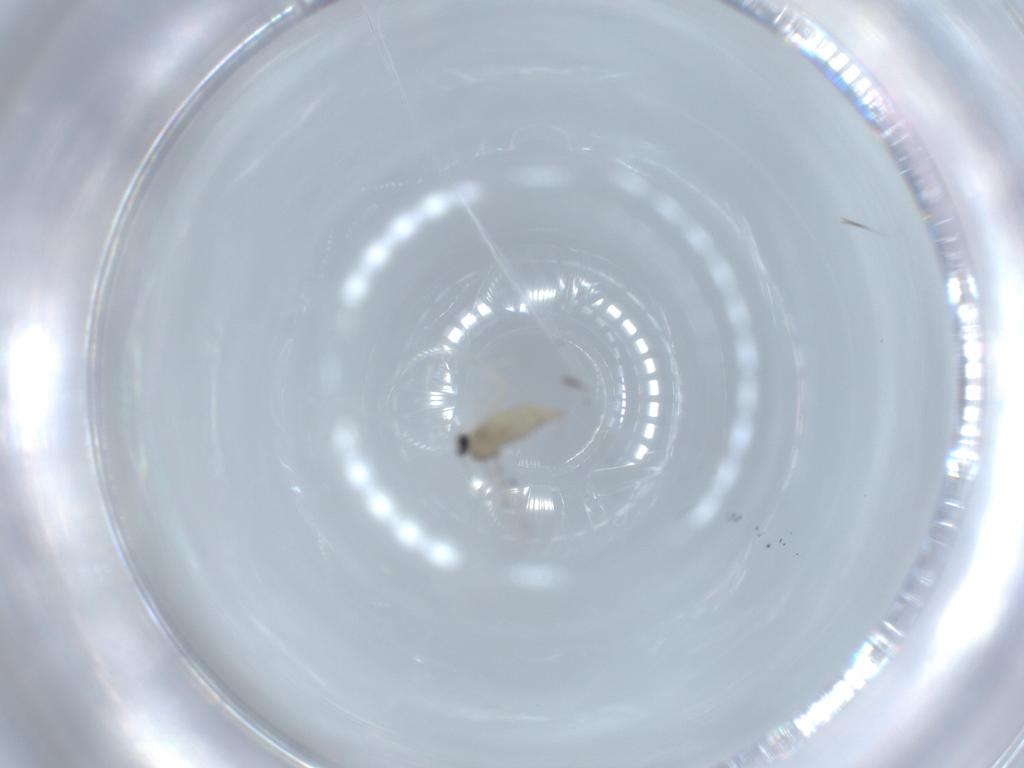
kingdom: Animalia
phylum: Arthropoda
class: Insecta
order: Diptera
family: Cecidomyiidae
